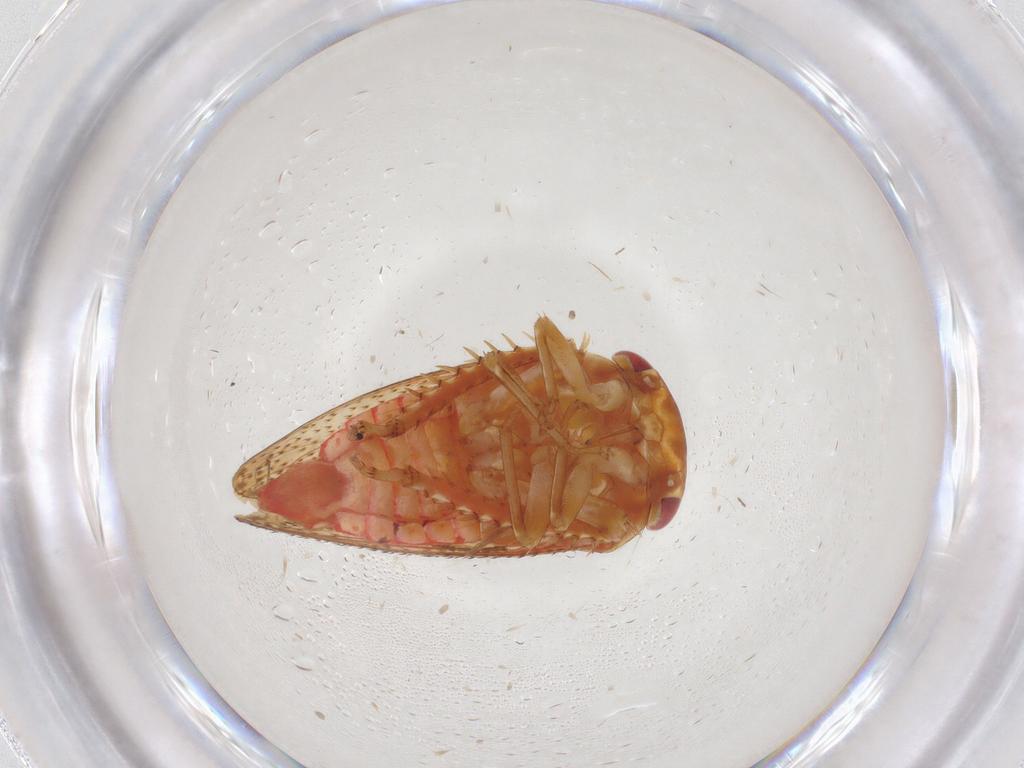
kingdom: Animalia
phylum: Arthropoda
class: Insecta
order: Hemiptera
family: Cicadellidae
